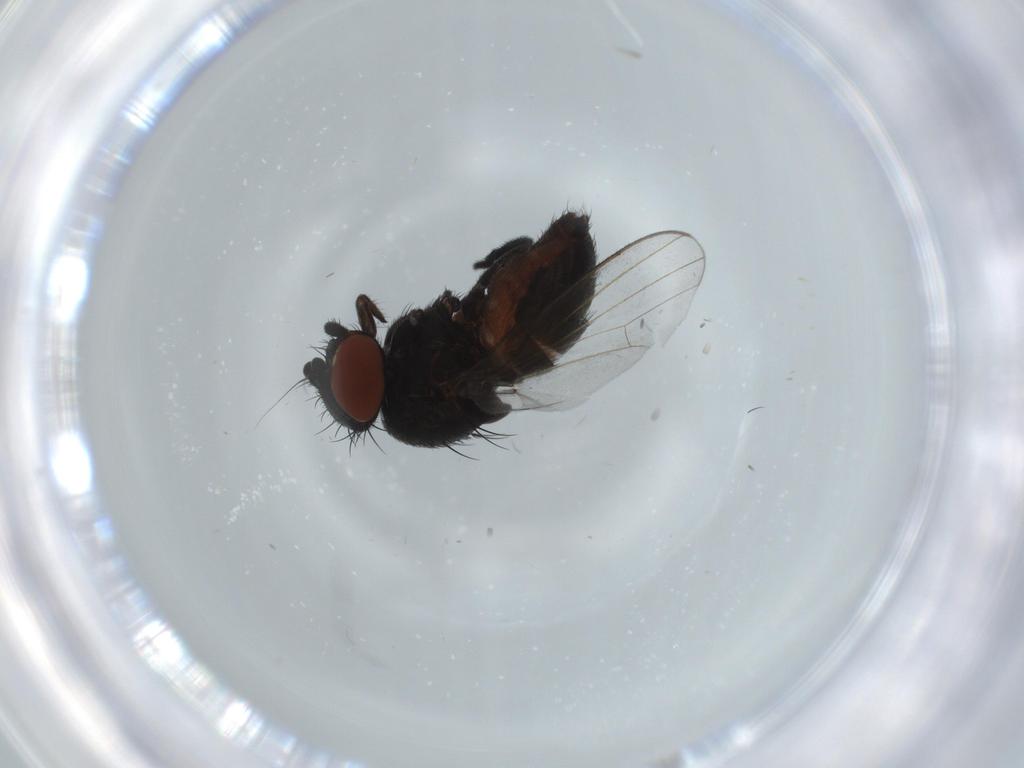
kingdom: Animalia
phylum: Arthropoda
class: Insecta
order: Diptera
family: Milichiidae
